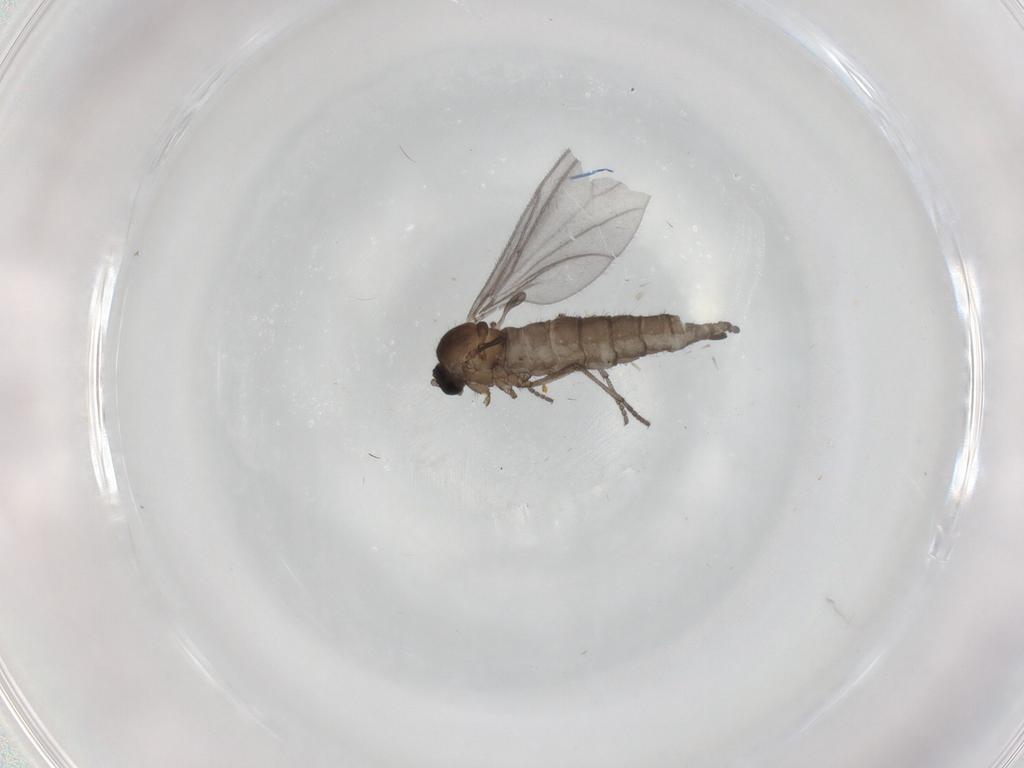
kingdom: Animalia
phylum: Arthropoda
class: Insecta
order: Diptera
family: Sciaridae
